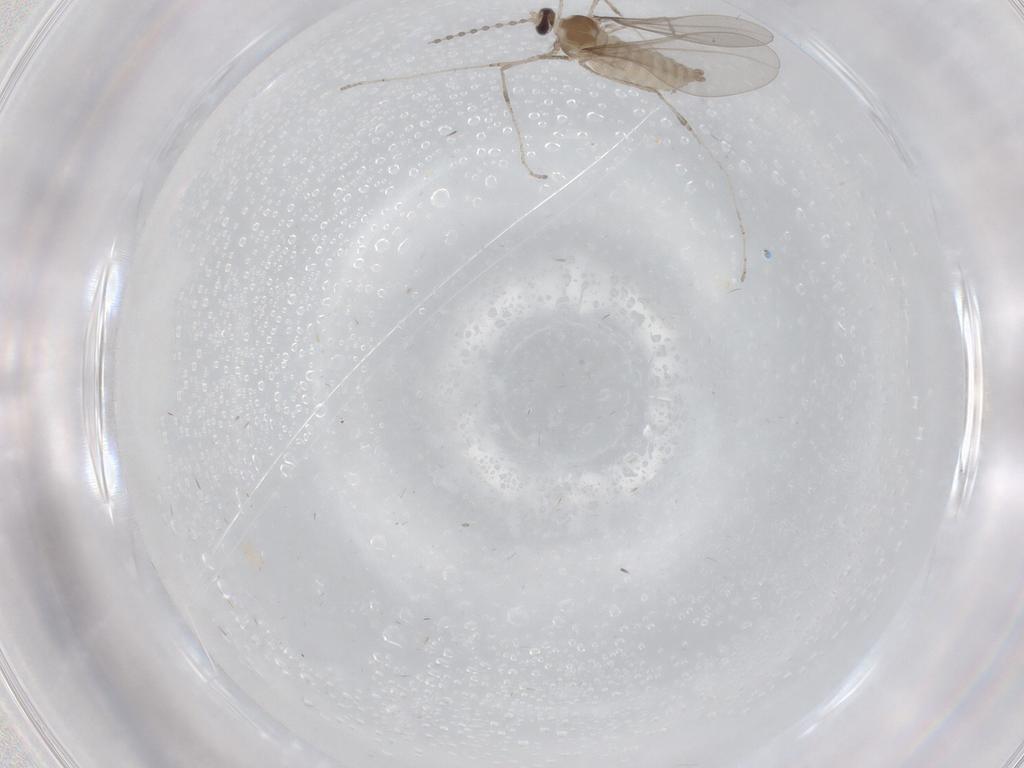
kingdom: Animalia
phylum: Arthropoda
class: Insecta
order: Diptera
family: Cecidomyiidae
